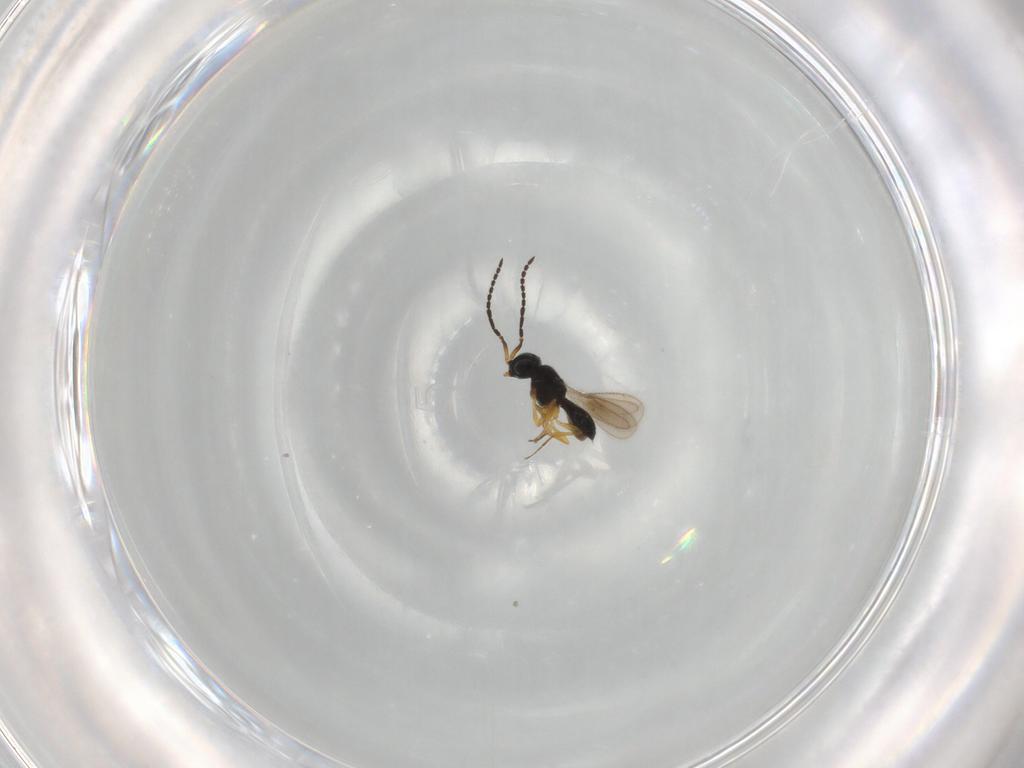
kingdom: Animalia
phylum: Arthropoda
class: Insecta
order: Hymenoptera
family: Scelionidae
